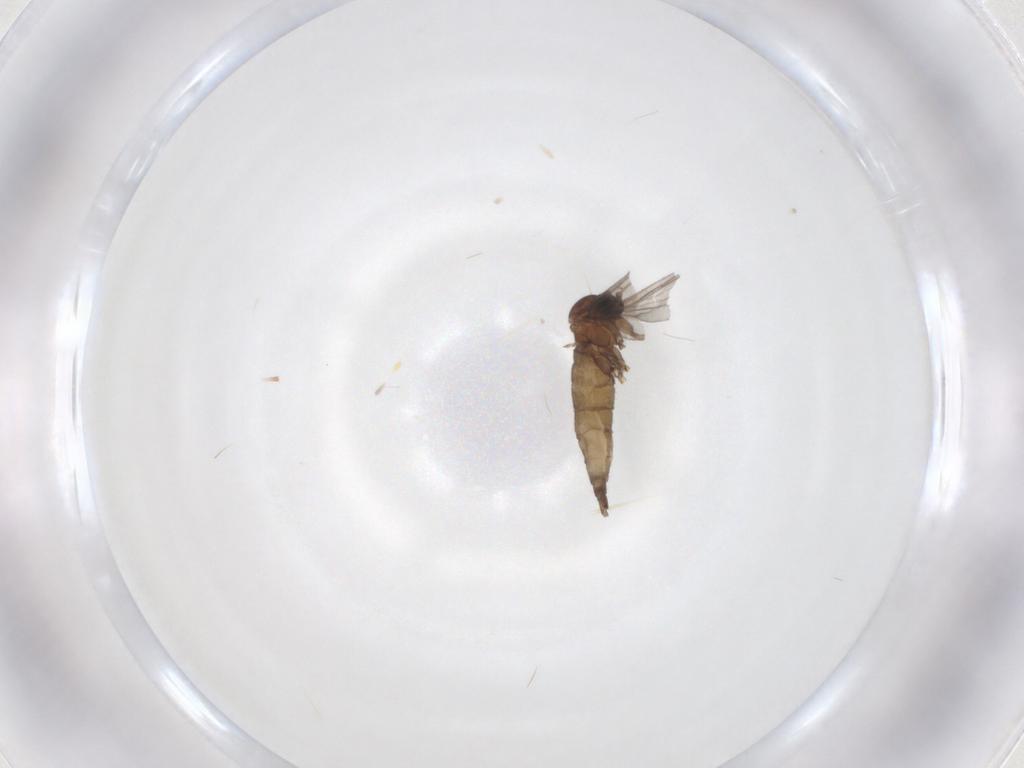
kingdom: Animalia
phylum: Arthropoda
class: Insecta
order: Diptera
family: Sciaridae
